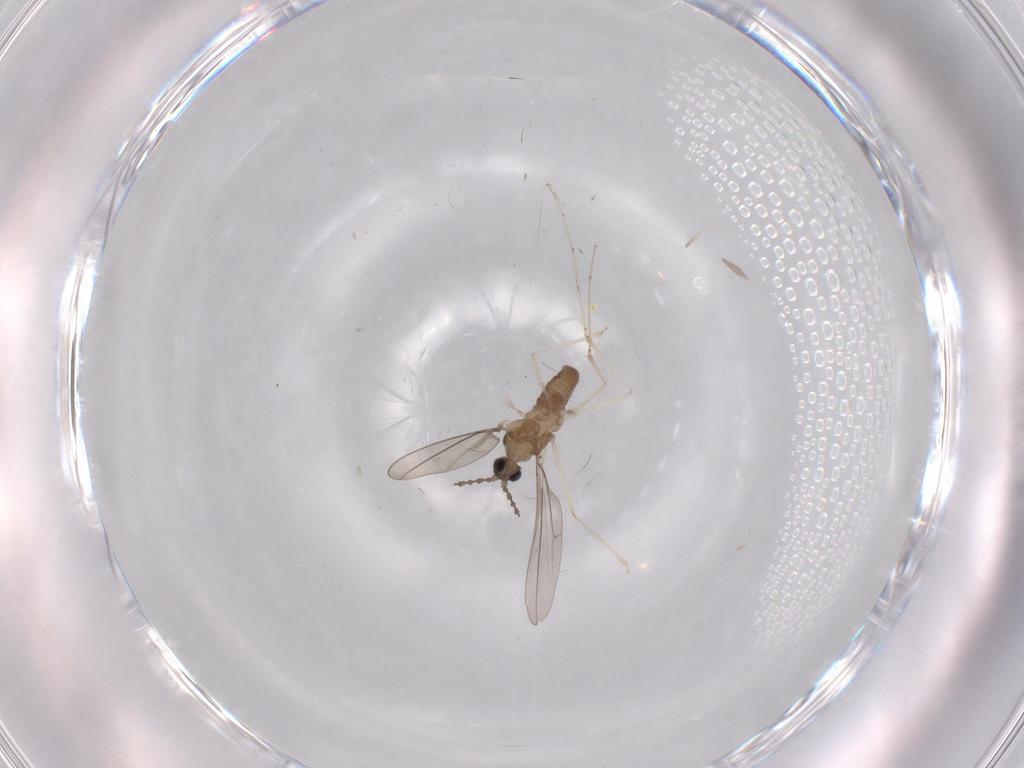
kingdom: Animalia
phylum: Arthropoda
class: Insecta
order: Diptera
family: Cecidomyiidae
